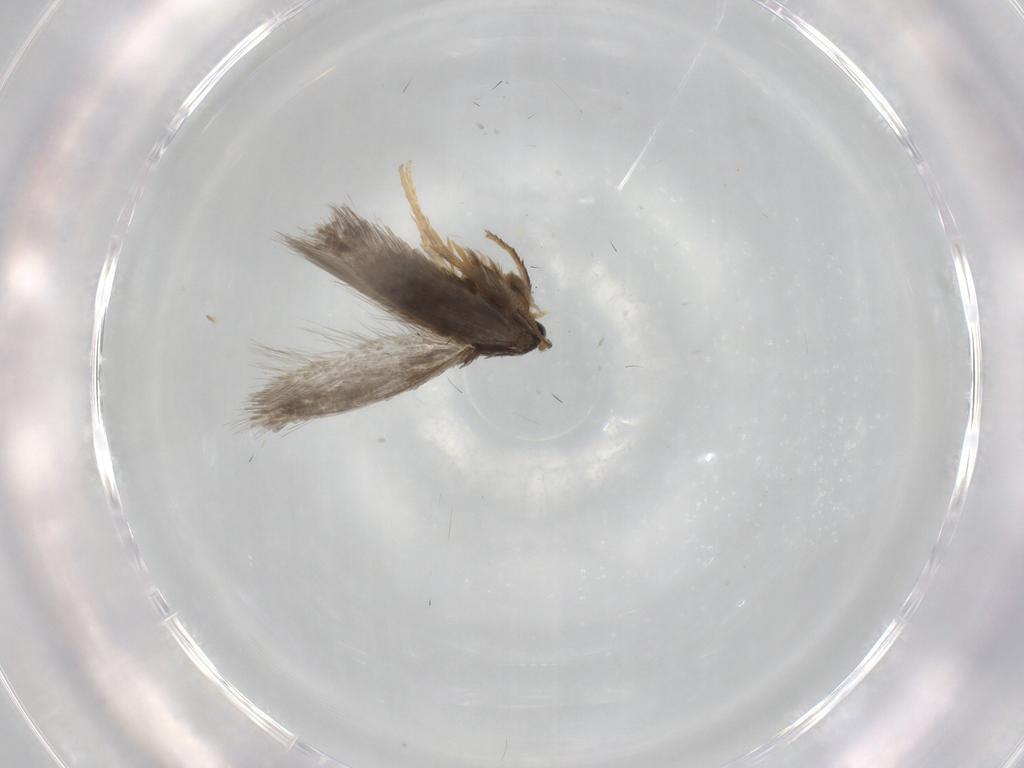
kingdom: Animalia
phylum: Arthropoda
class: Insecta
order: Lepidoptera
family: Nepticulidae
